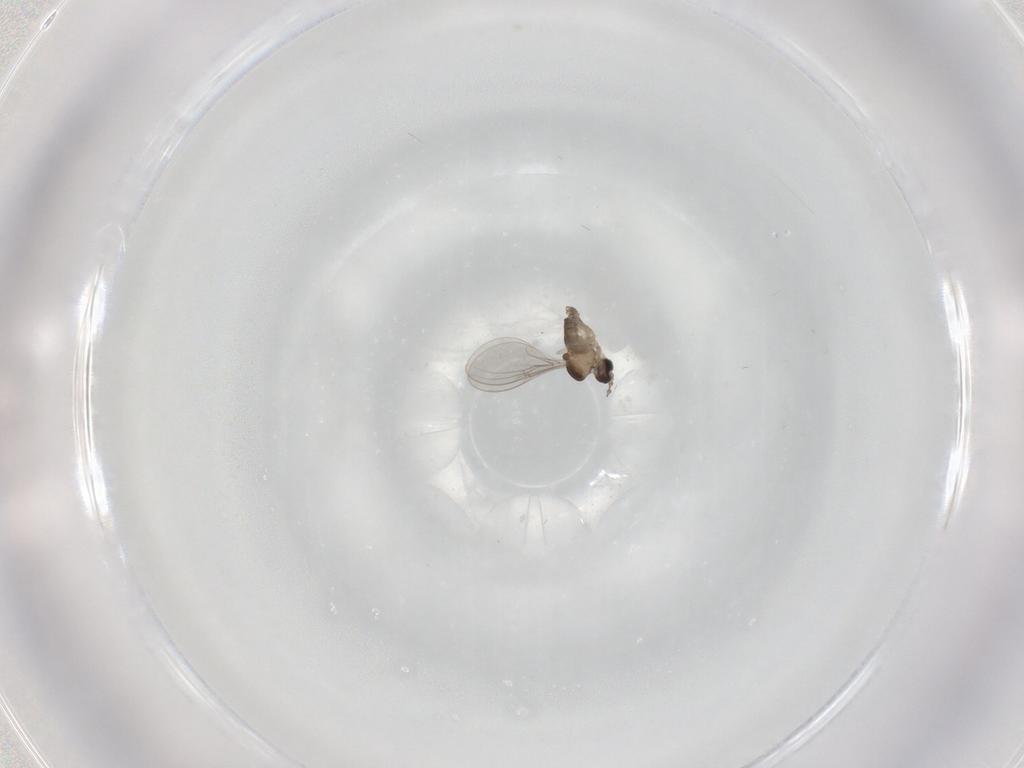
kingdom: Animalia
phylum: Arthropoda
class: Insecta
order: Diptera
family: Cecidomyiidae
